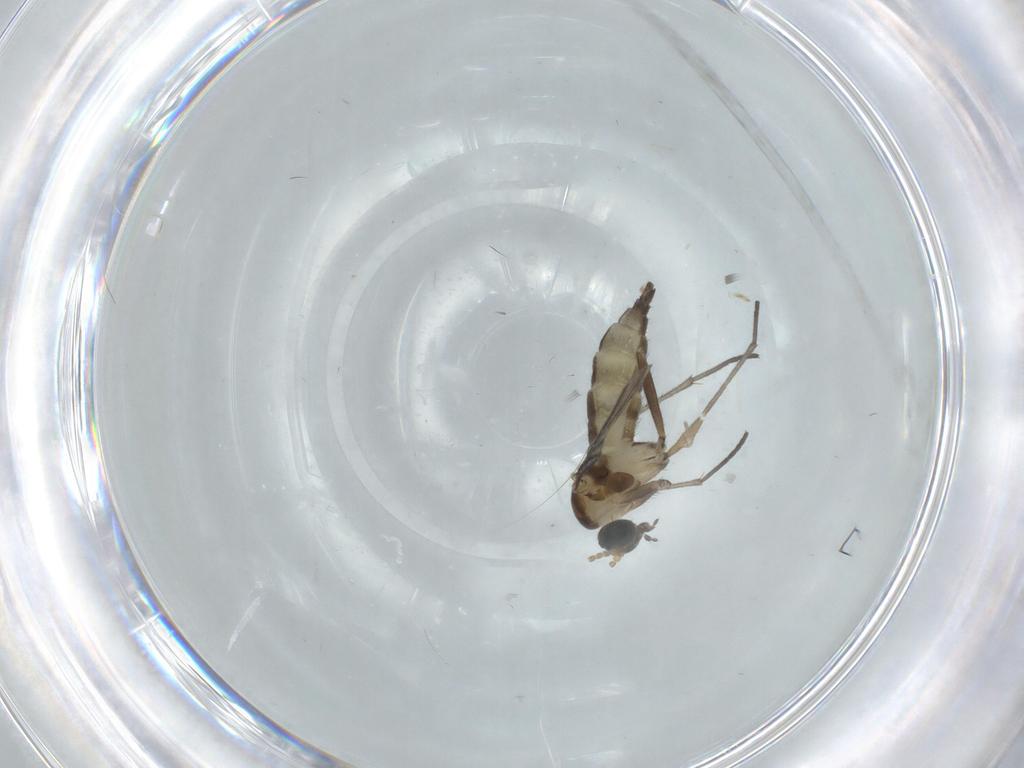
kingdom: Animalia
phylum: Arthropoda
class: Insecta
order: Diptera
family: Sciaridae
